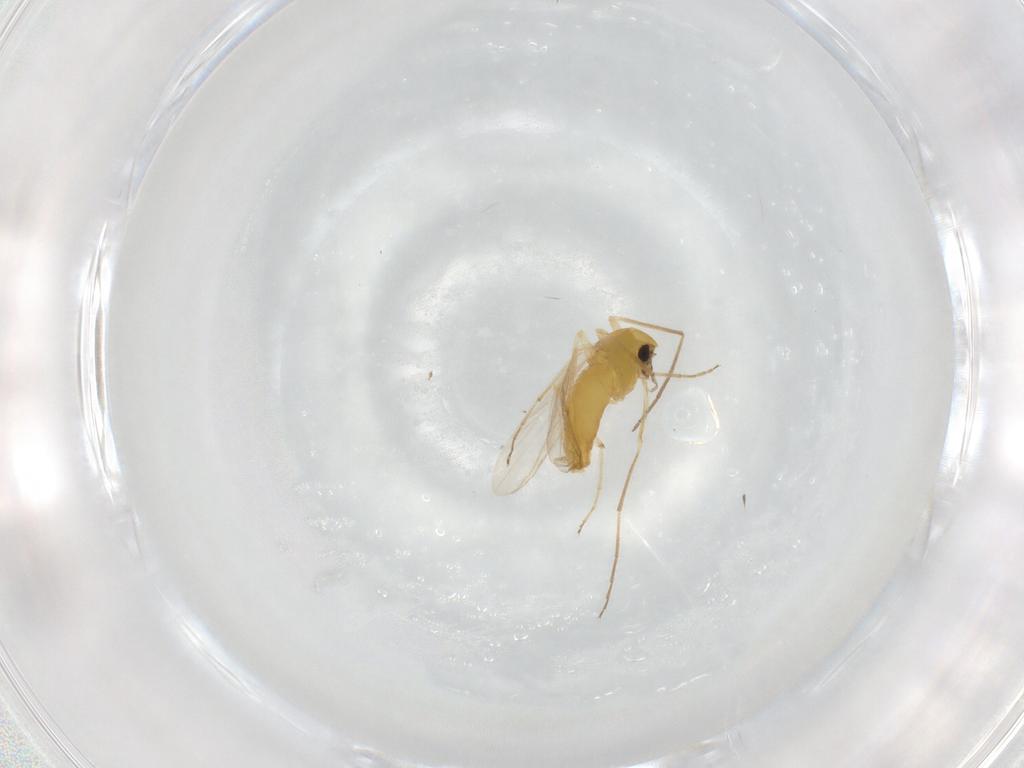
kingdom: Animalia
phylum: Arthropoda
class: Insecta
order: Diptera
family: Chironomidae
